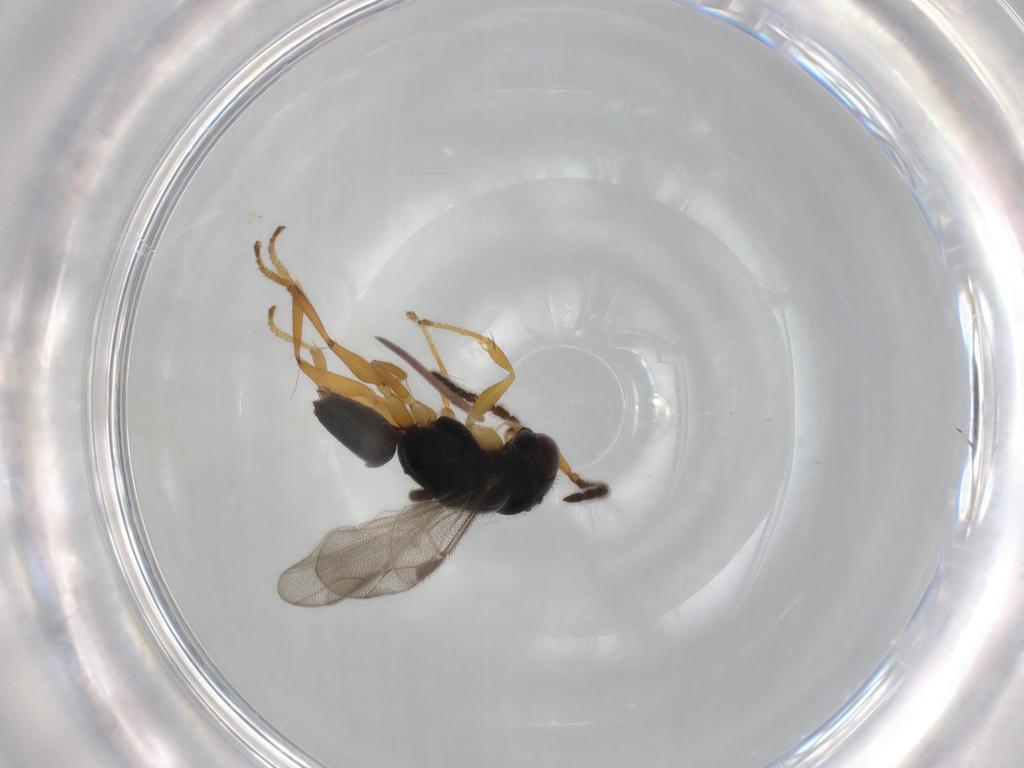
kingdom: Animalia
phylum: Arthropoda
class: Insecta
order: Hymenoptera
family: Dryinidae
